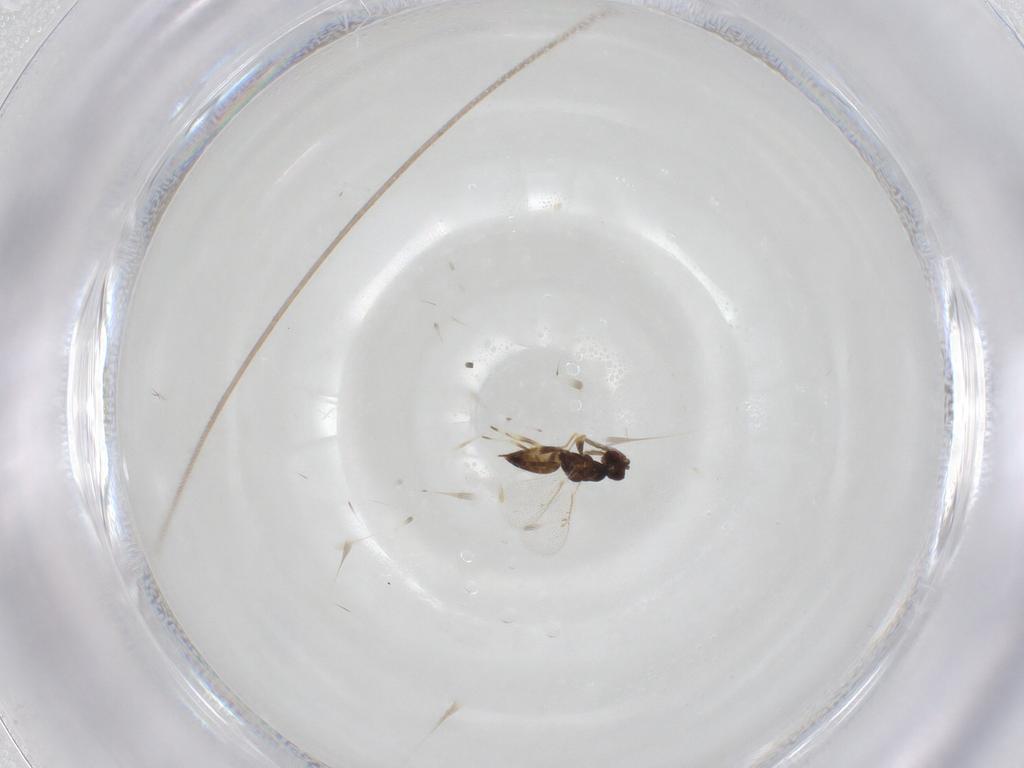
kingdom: Animalia
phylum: Arthropoda
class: Insecta
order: Hymenoptera
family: Eulophidae
